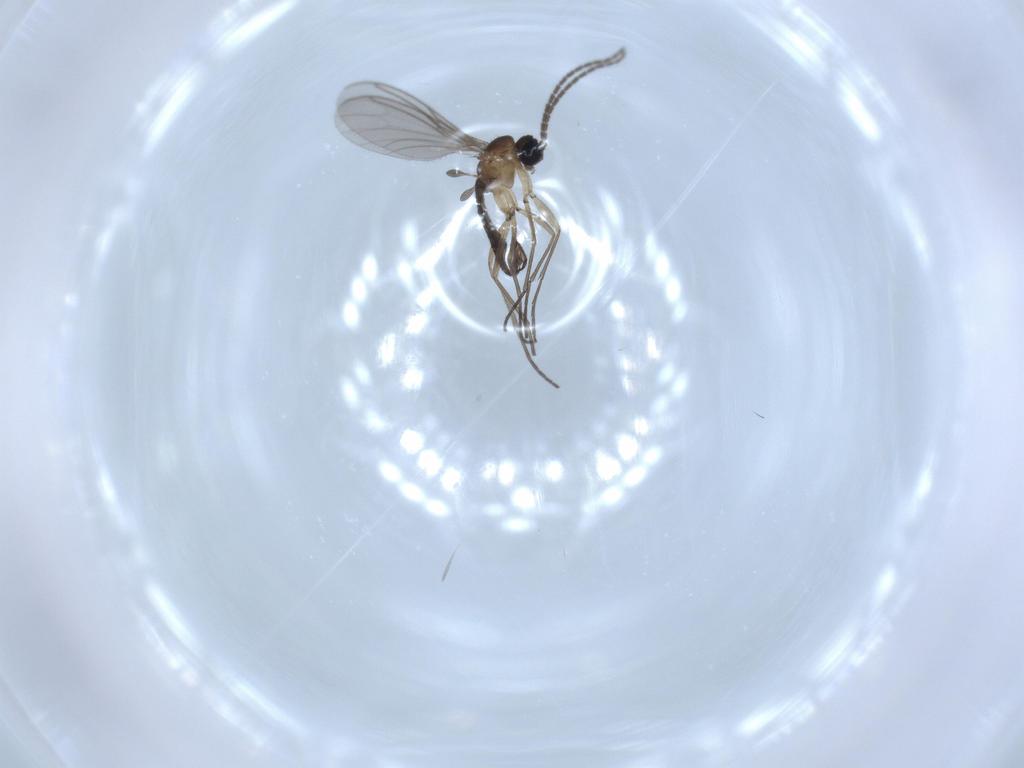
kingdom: Animalia
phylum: Arthropoda
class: Insecta
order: Diptera
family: Sciaridae
